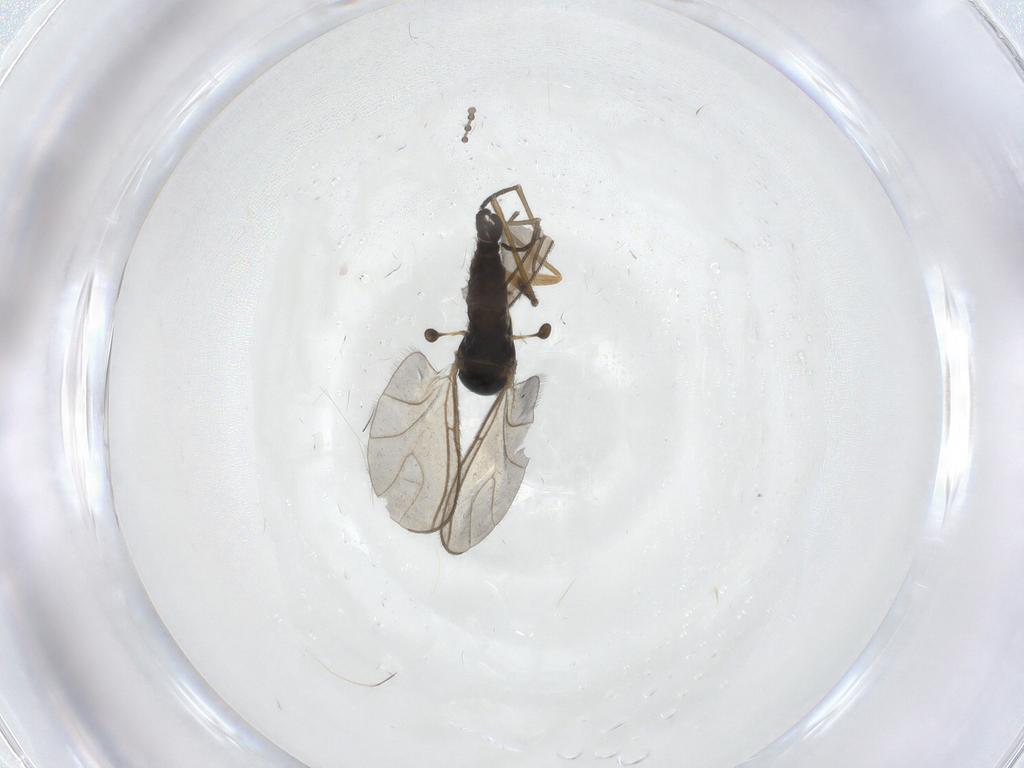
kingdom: Animalia
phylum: Arthropoda
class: Insecta
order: Diptera
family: Sciaridae
